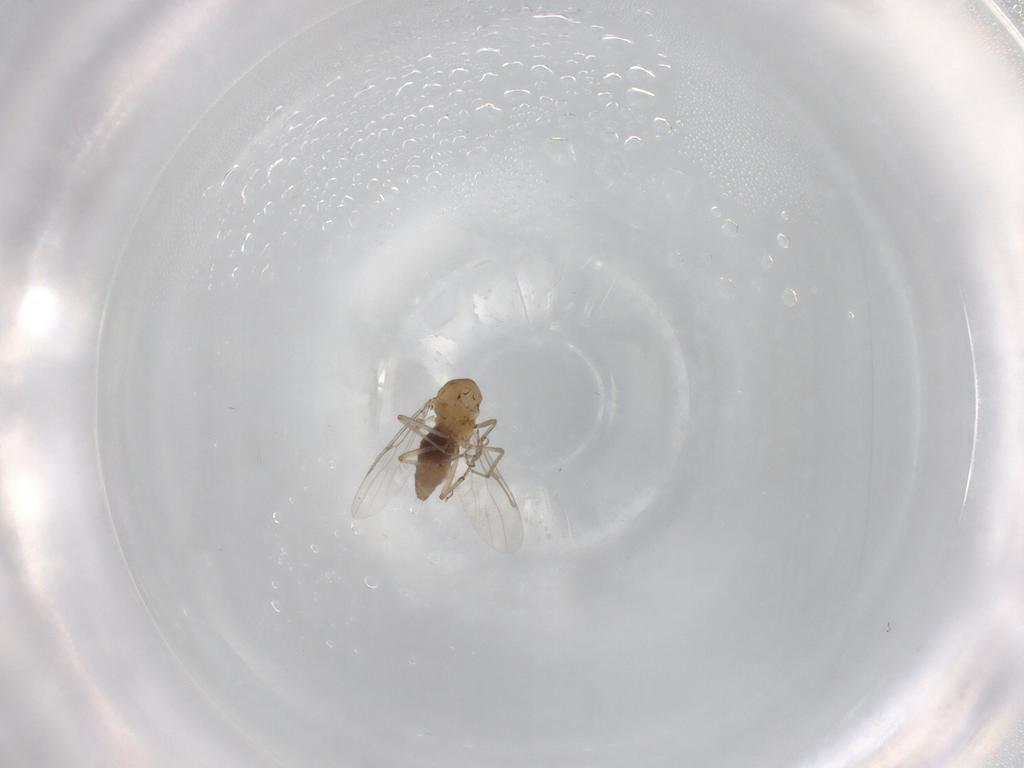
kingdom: Animalia
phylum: Arthropoda
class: Insecta
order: Diptera
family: Chironomidae
